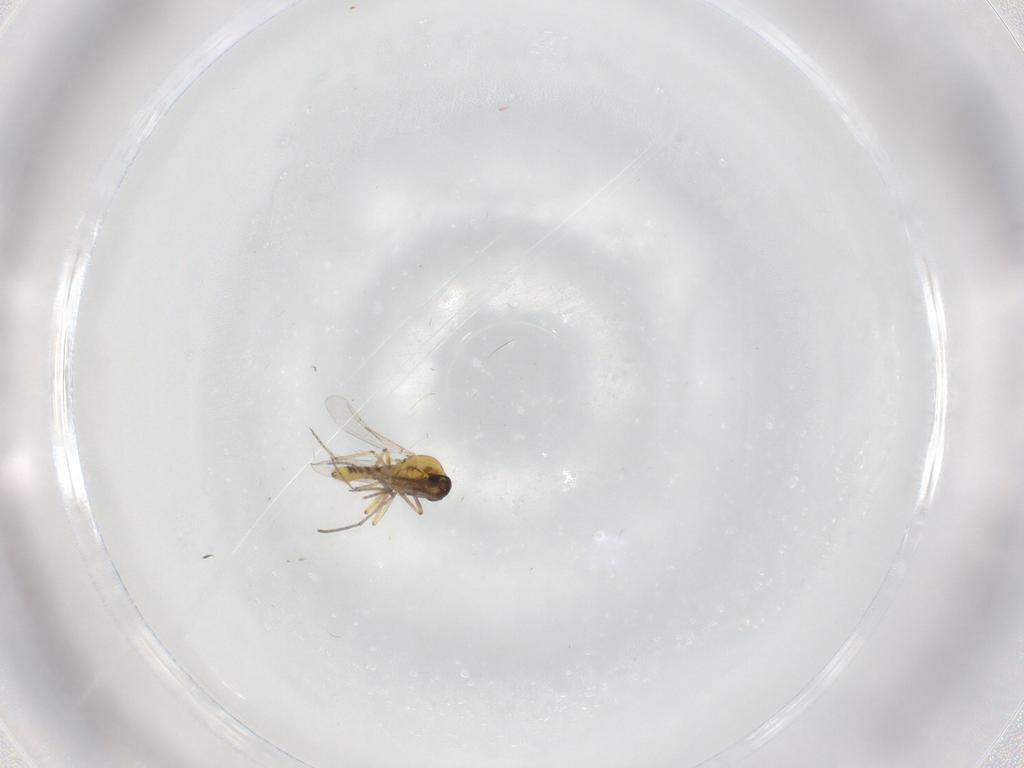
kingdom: Animalia
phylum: Arthropoda
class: Insecta
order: Diptera
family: Ceratopogonidae
